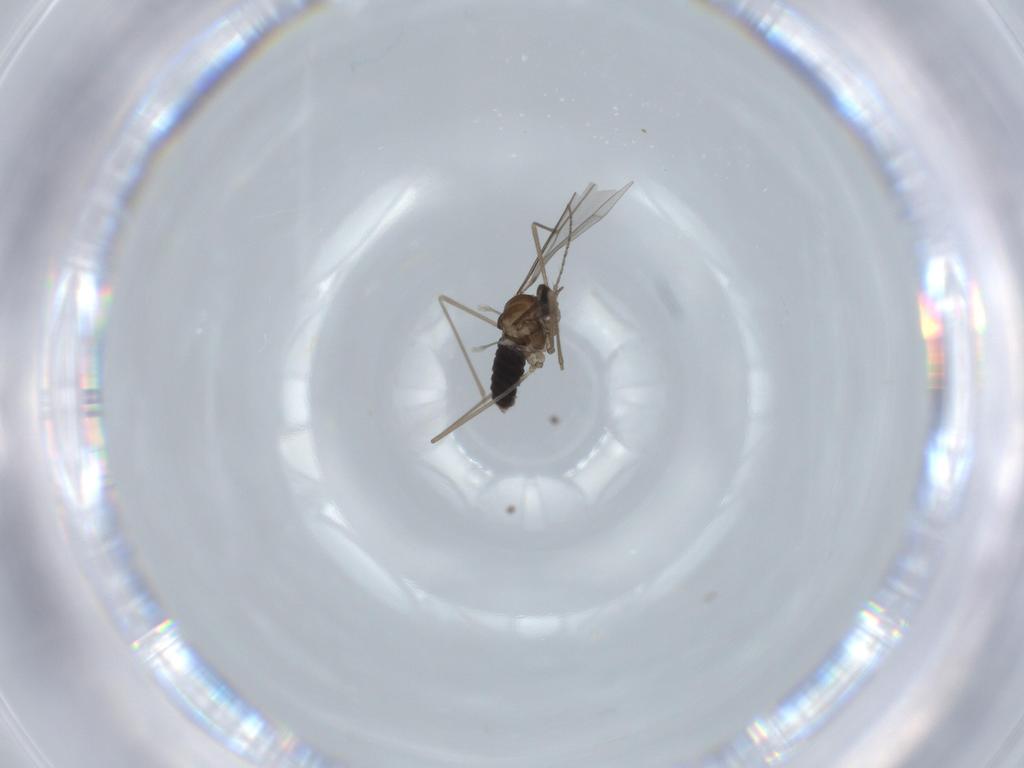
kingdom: Animalia
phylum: Arthropoda
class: Insecta
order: Diptera
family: Cecidomyiidae
